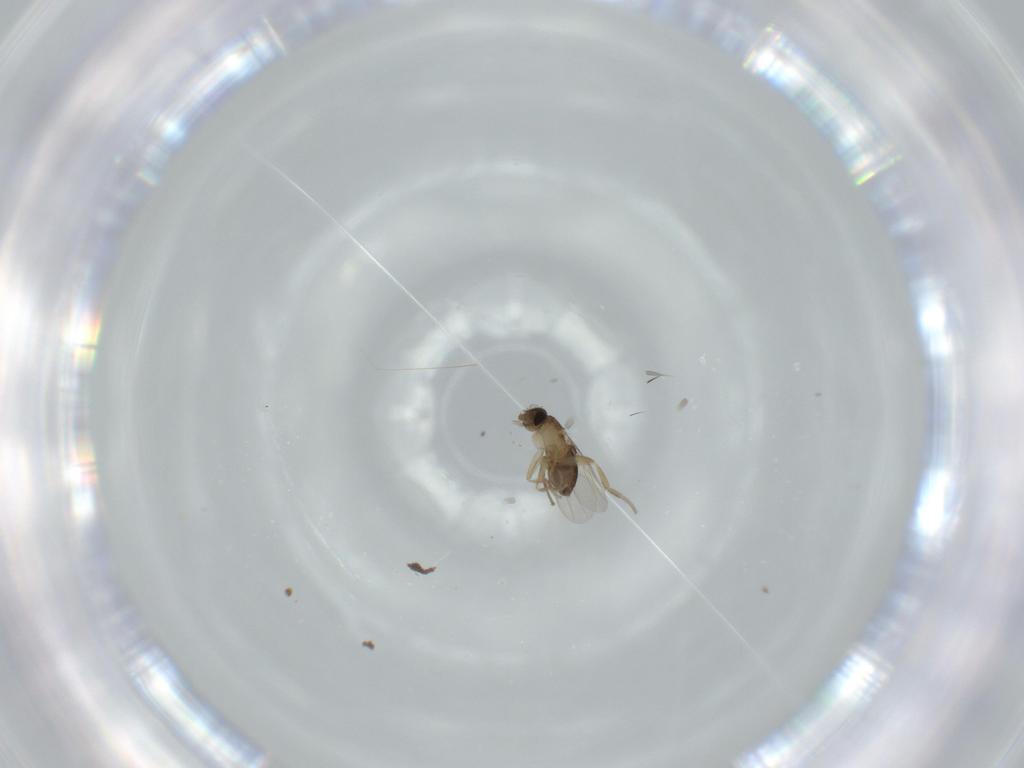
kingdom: Animalia
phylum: Arthropoda
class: Insecta
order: Diptera
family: Phoridae
